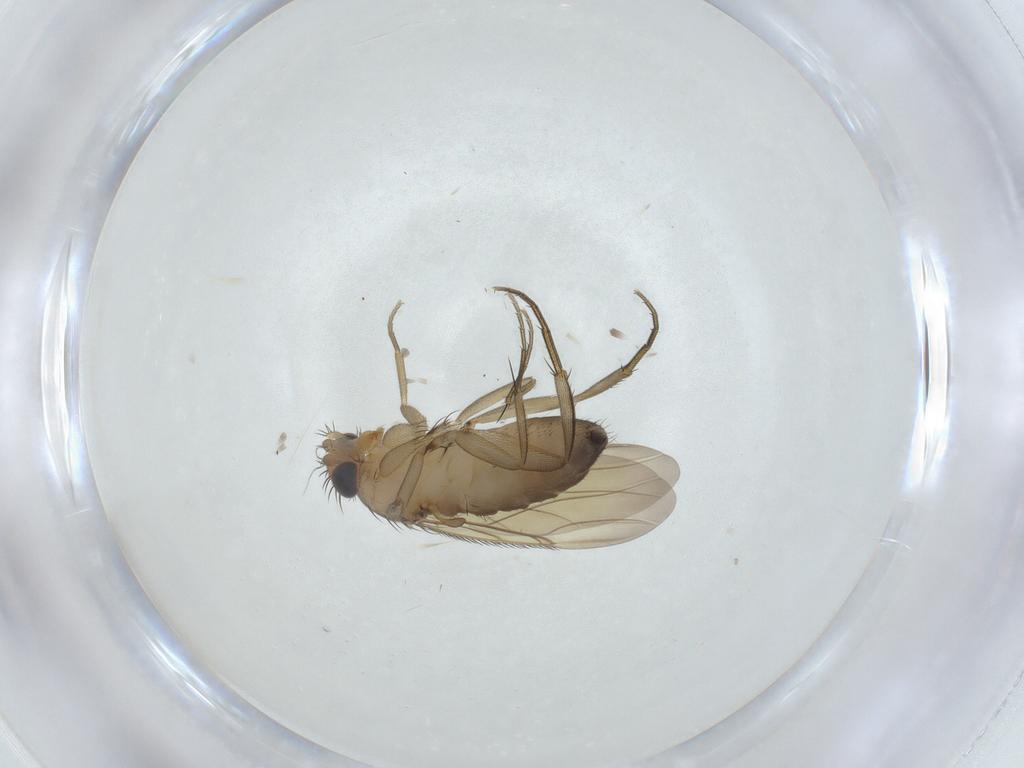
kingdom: Animalia
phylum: Arthropoda
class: Insecta
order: Diptera
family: Phoridae
